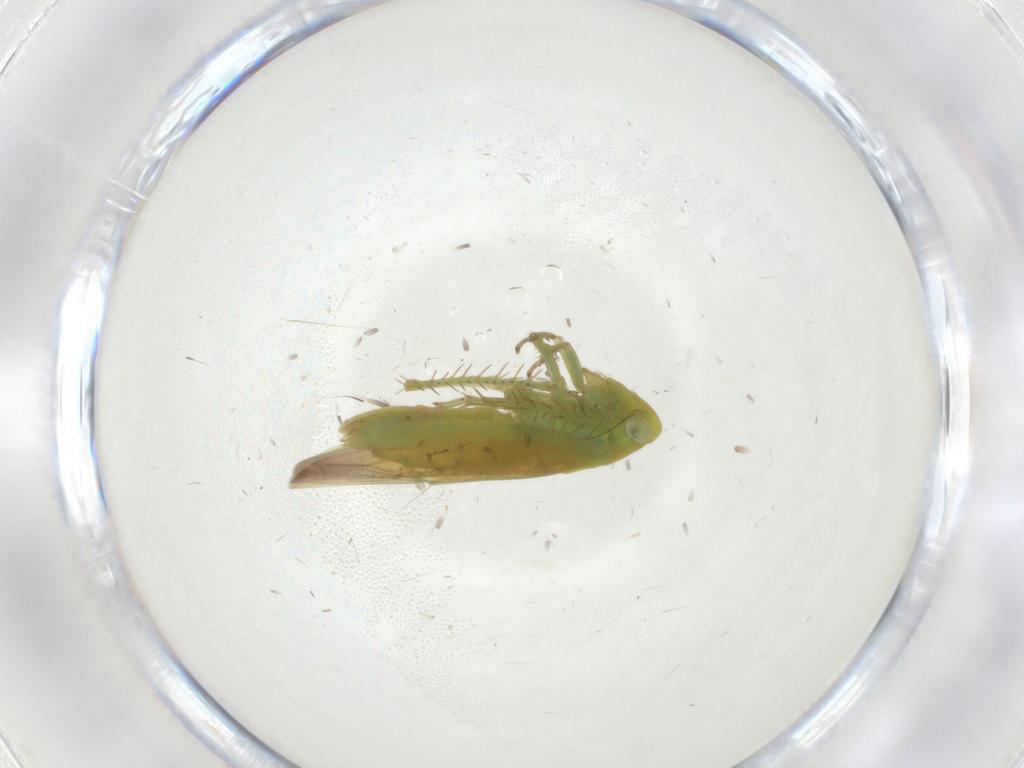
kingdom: Animalia
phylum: Arthropoda
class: Insecta
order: Hemiptera
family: Cicadellidae
